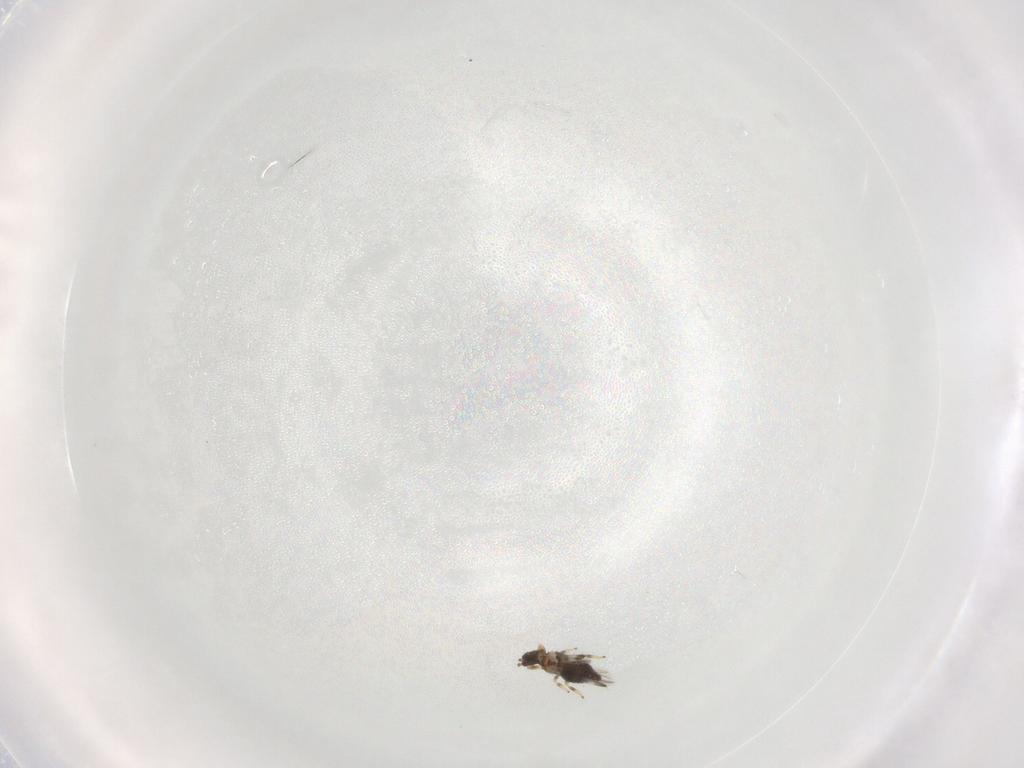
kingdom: Animalia
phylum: Arthropoda
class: Insecta
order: Thysanoptera
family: Thripidae
